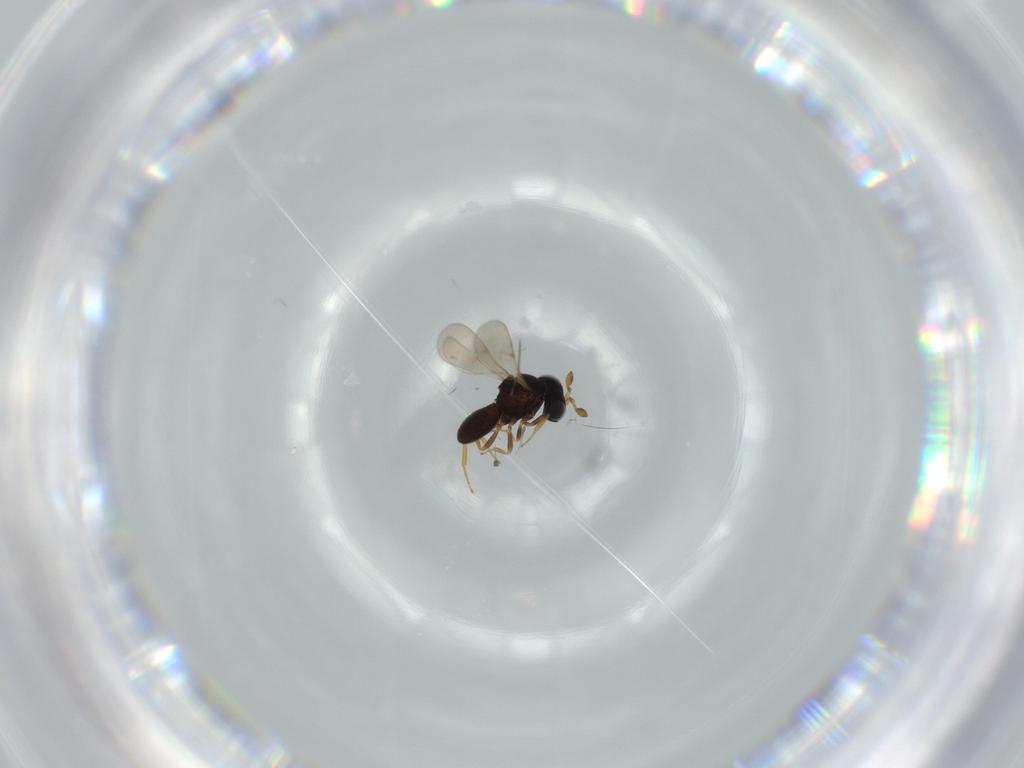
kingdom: Animalia
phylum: Arthropoda
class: Insecta
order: Hymenoptera
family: Scelionidae
